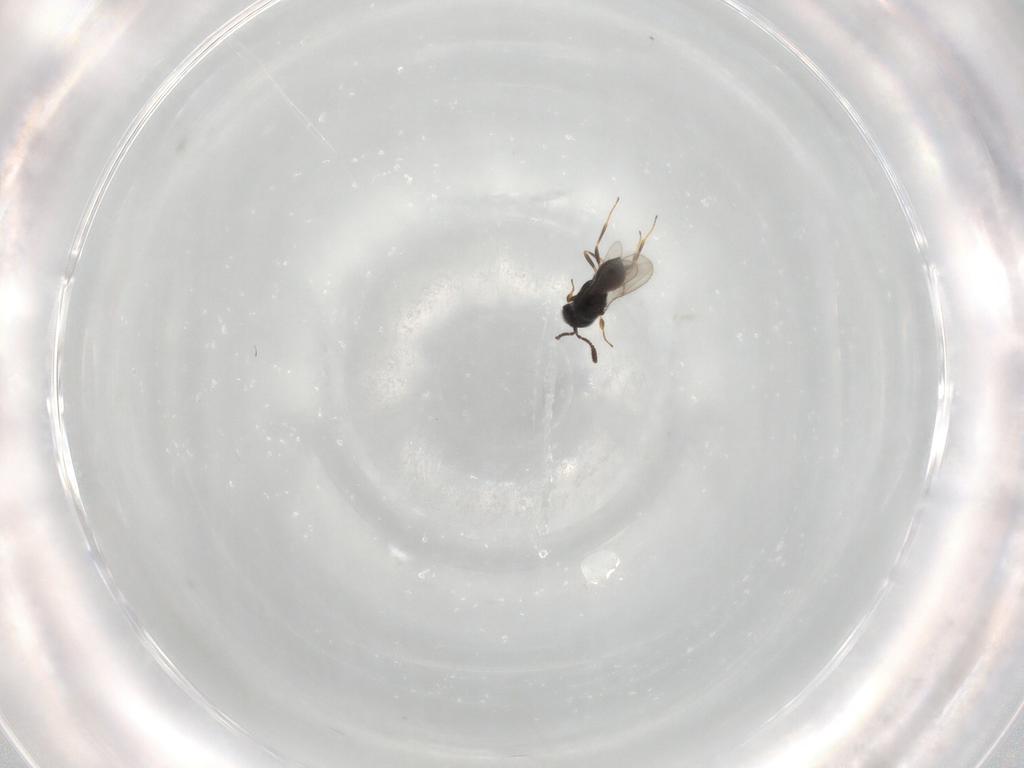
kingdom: Animalia
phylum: Arthropoda
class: Insecta
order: Hymenoptera
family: Scelionidae
